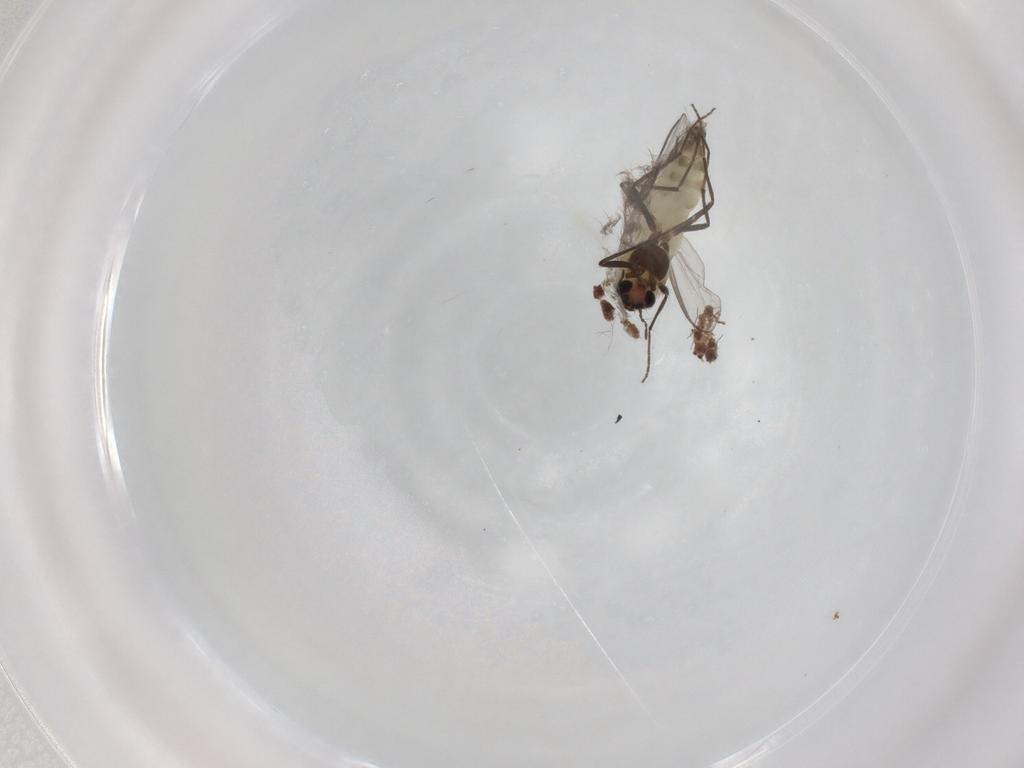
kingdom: Animalia
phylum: Arthropoda
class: Insecta
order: Diptera
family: Chironomidae
